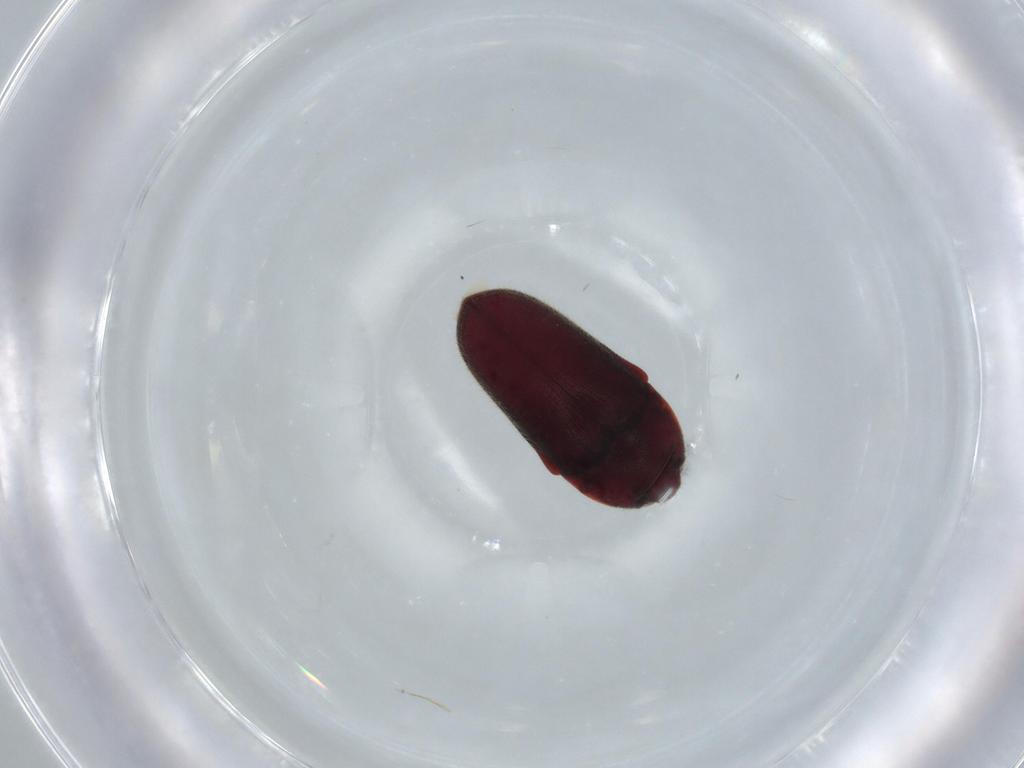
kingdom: Animalia
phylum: Arthropoda
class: Insecta
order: Coleoptera
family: Throscidae
